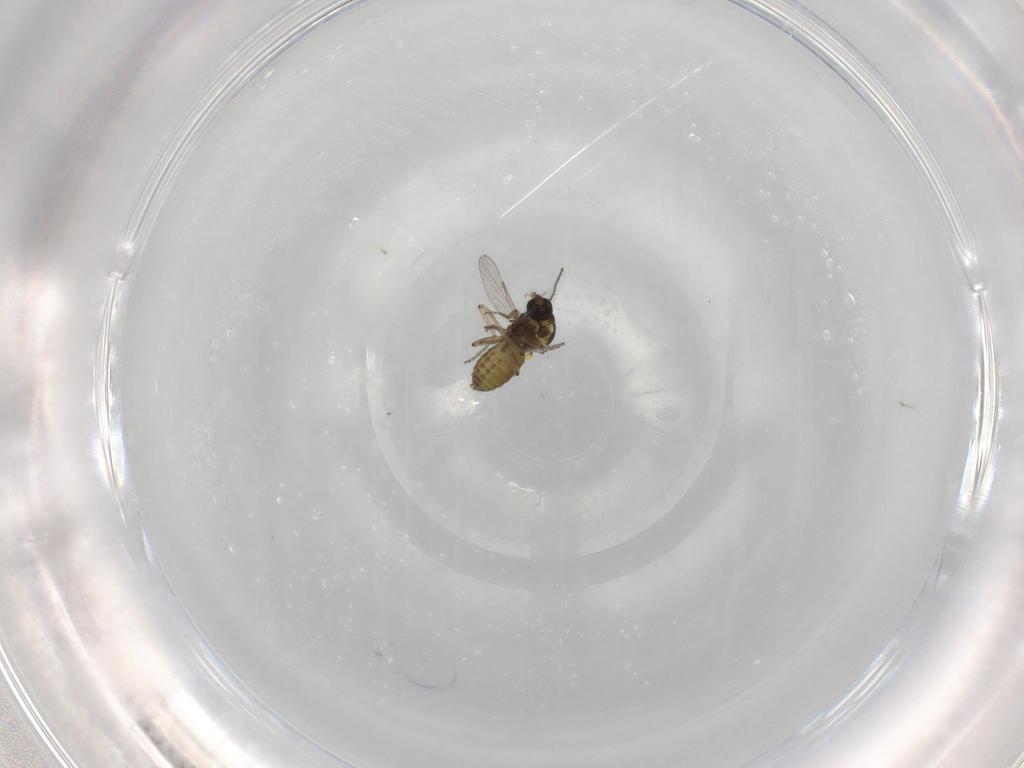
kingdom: Animalia
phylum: Arthropoda
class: Insecta
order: Diptera
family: Ceratopogonidae
